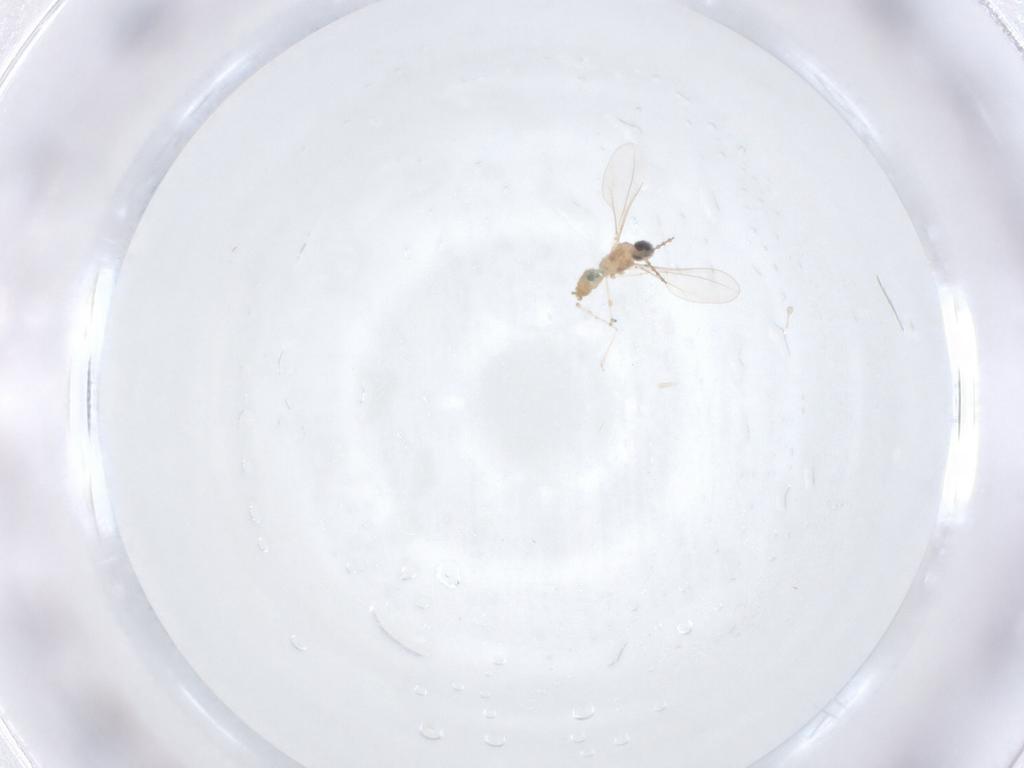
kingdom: Animalia
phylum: Arthropoda
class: Insecta
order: Diptera
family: Cecidomyiidae
